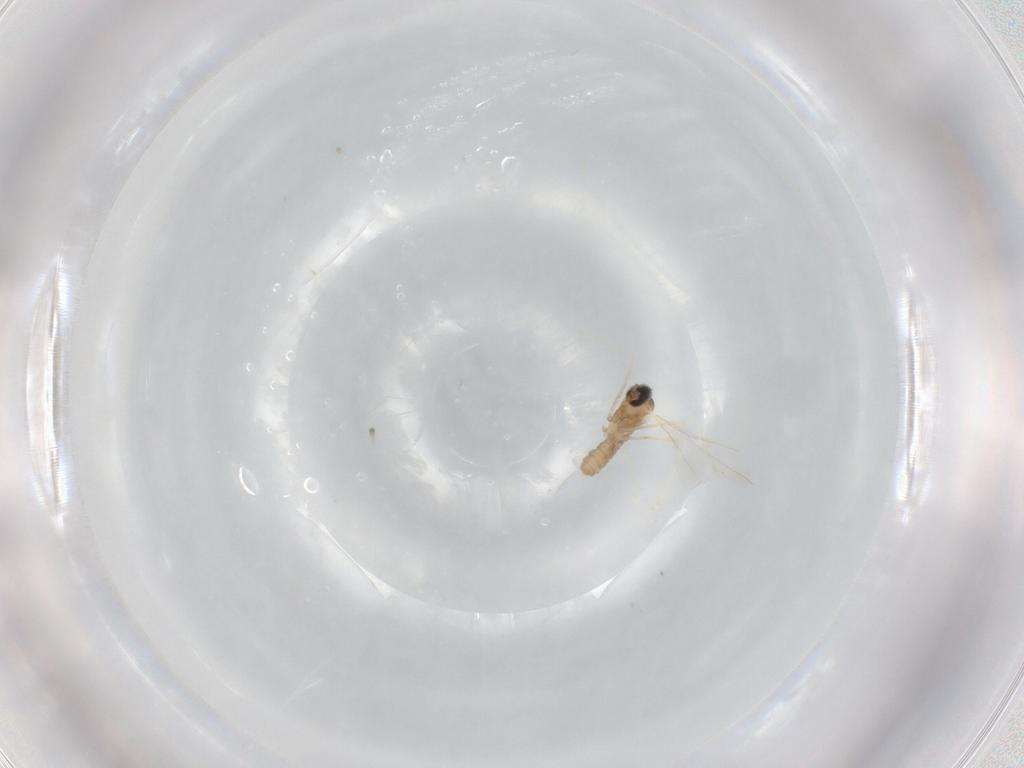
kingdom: Animalia
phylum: Arthropoda
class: Insecta
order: Diptera
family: Cecidomyiidae
